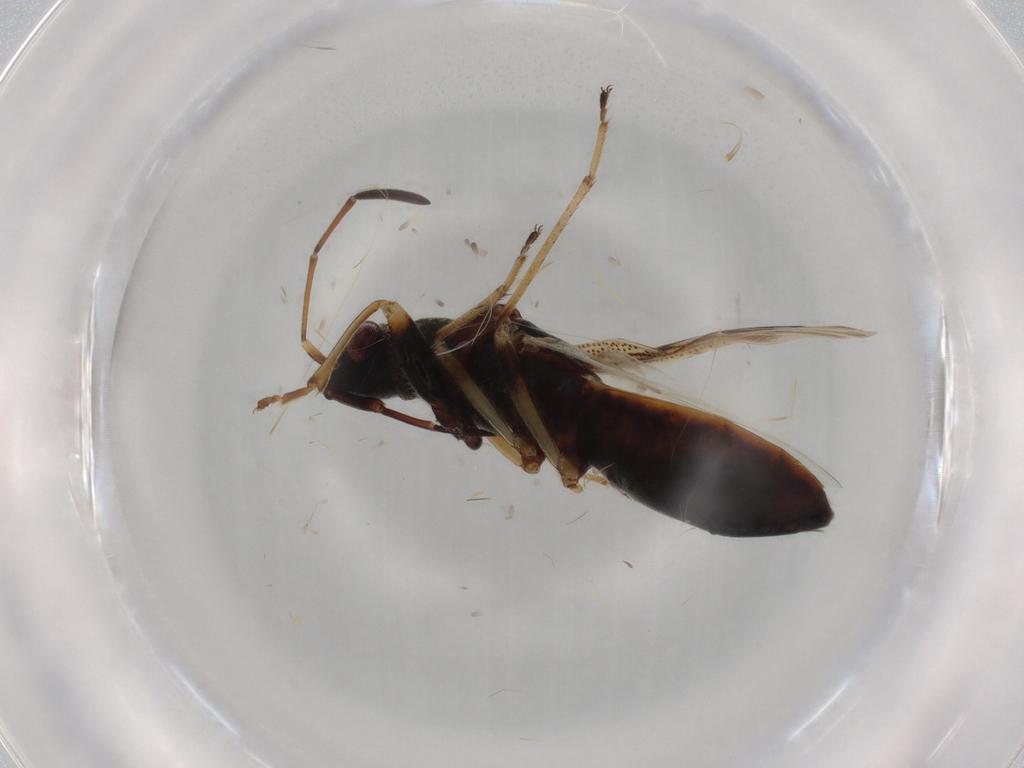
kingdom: Animalia
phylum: Arthropoda
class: Insecta
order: Hemiptera
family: Rhyparochromidae
